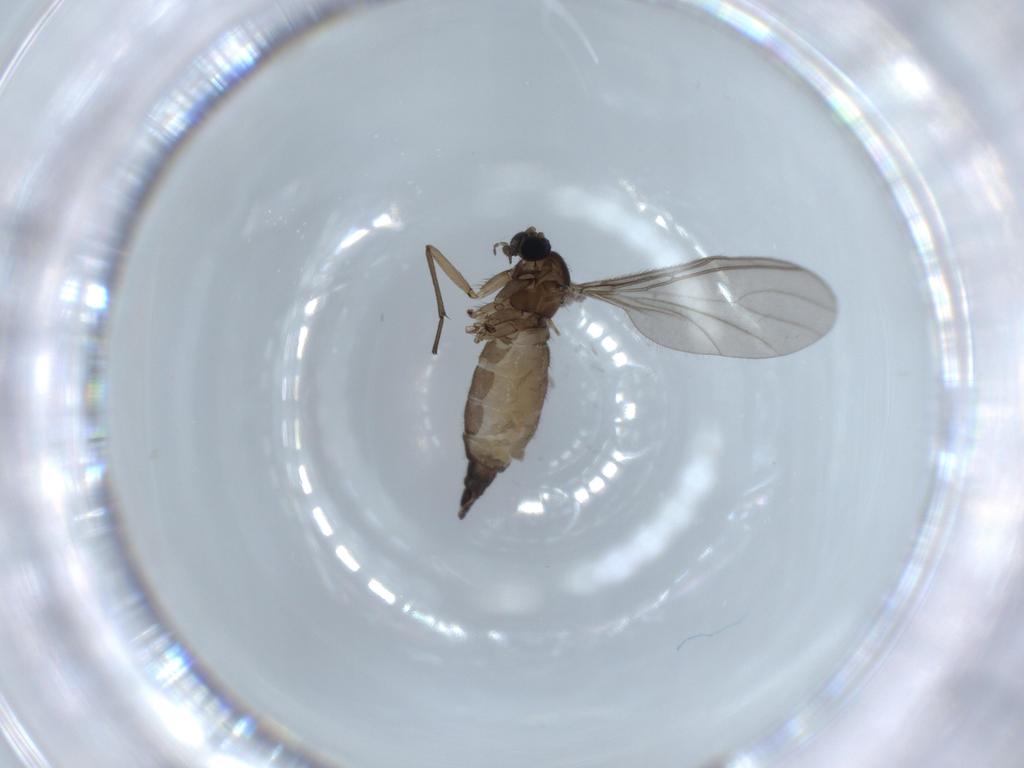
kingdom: Animalia
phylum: Arthropoda
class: Insecta
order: Diptera
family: Sciaridae
